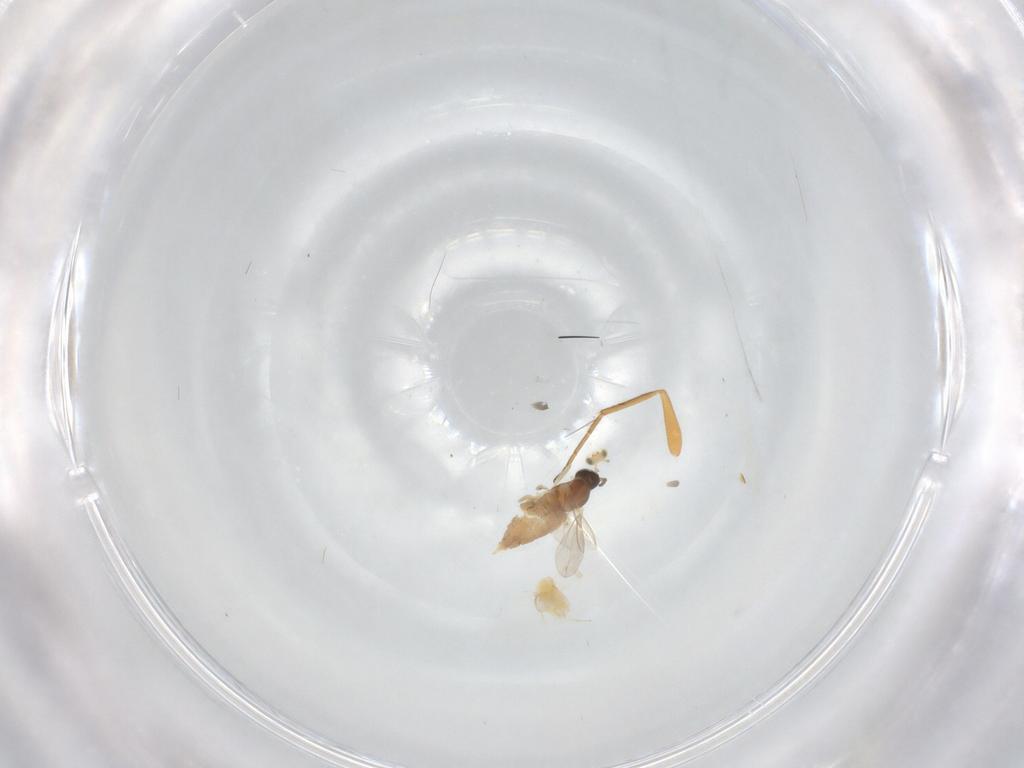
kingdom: Animalia
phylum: Arthropoda
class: Insecta
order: Hymenoptera
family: Aphelinidae
